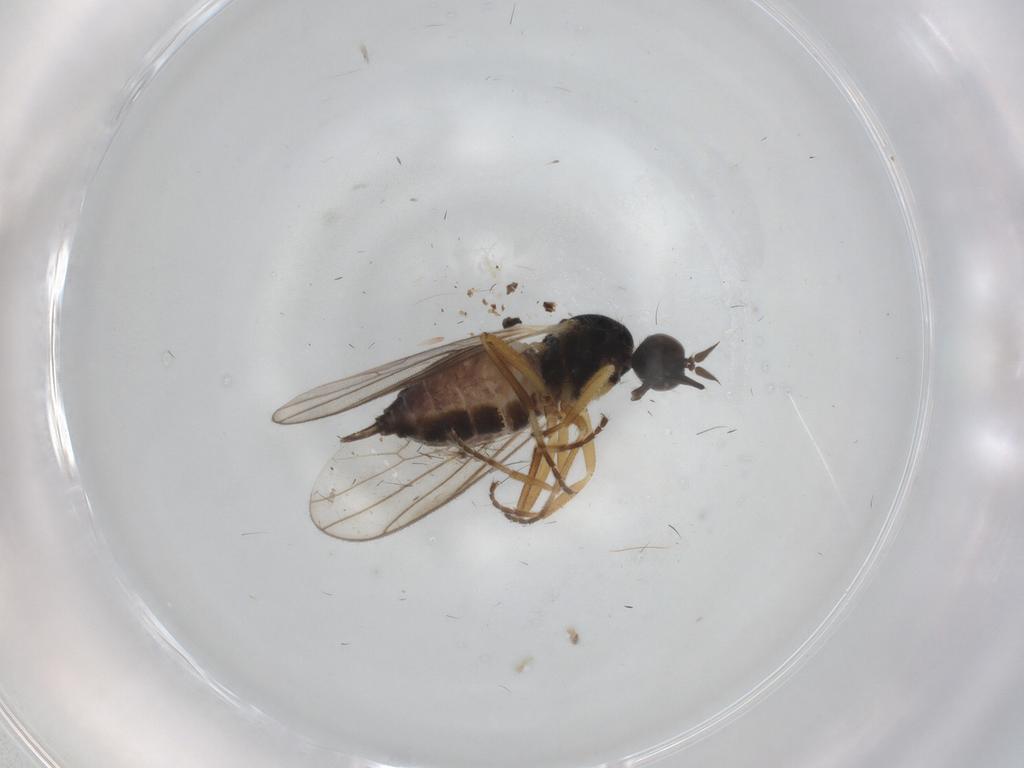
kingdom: Animalia
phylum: Arthropoda
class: Insecta
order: Diptera
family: Hybotidae
